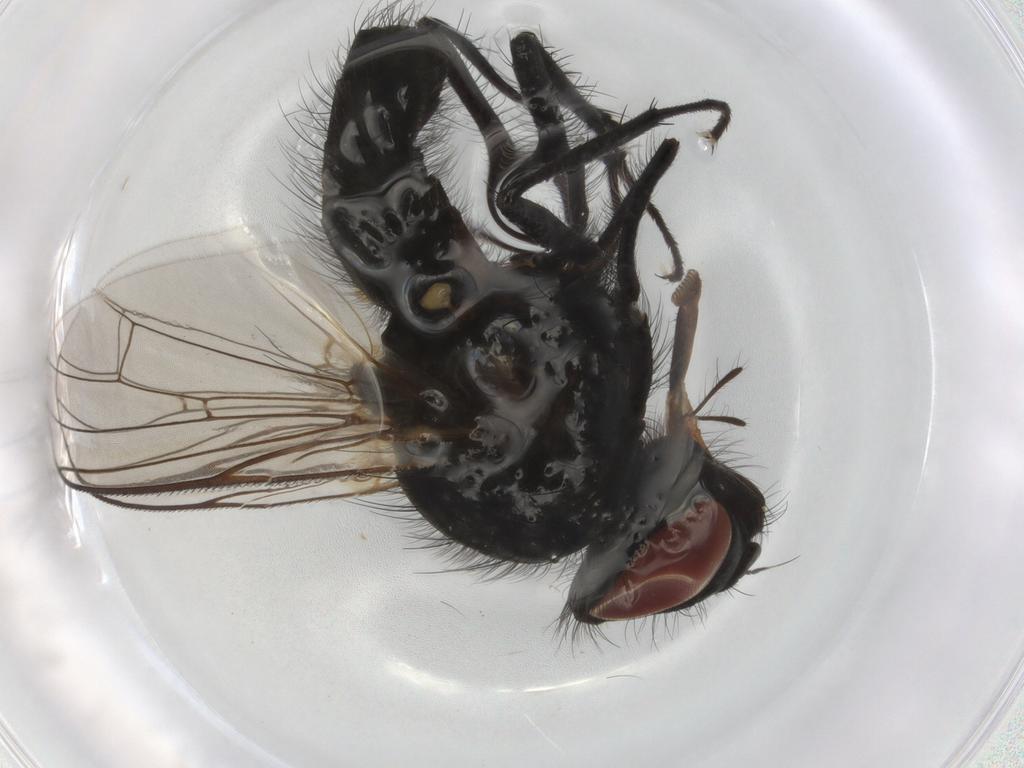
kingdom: Animalia
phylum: Arthropoda
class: Insecta
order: Diptera
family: Anthomyiidae
